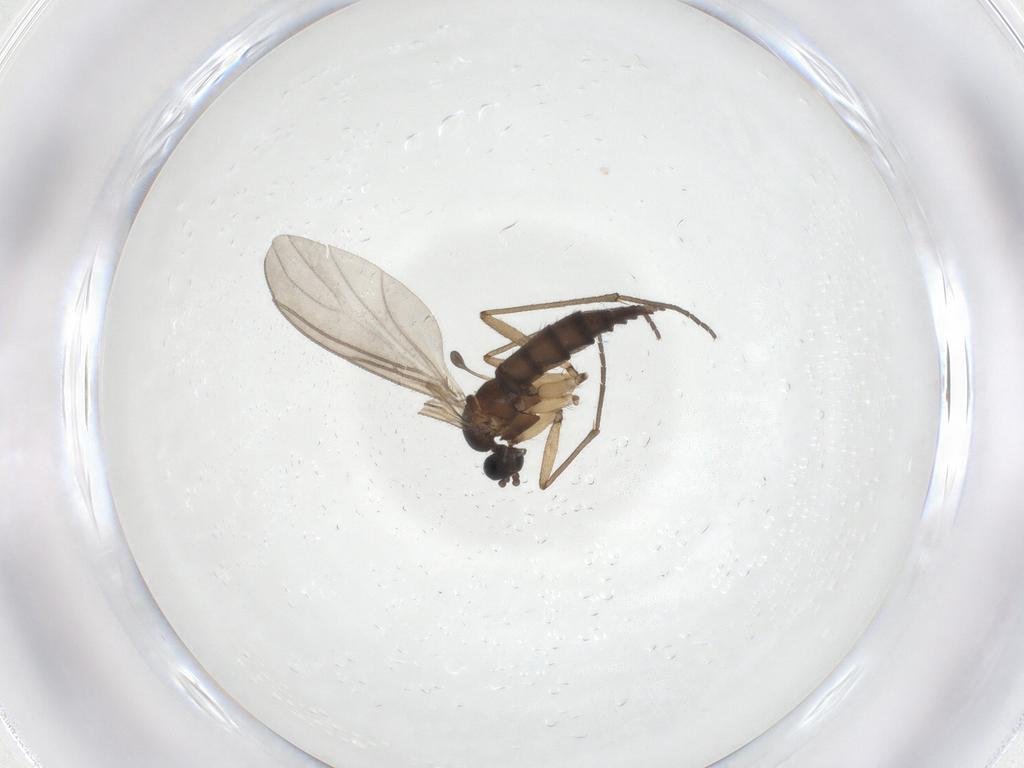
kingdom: Animalia
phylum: Arthropoda
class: Insecta
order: Diptera
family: Sciaridae
